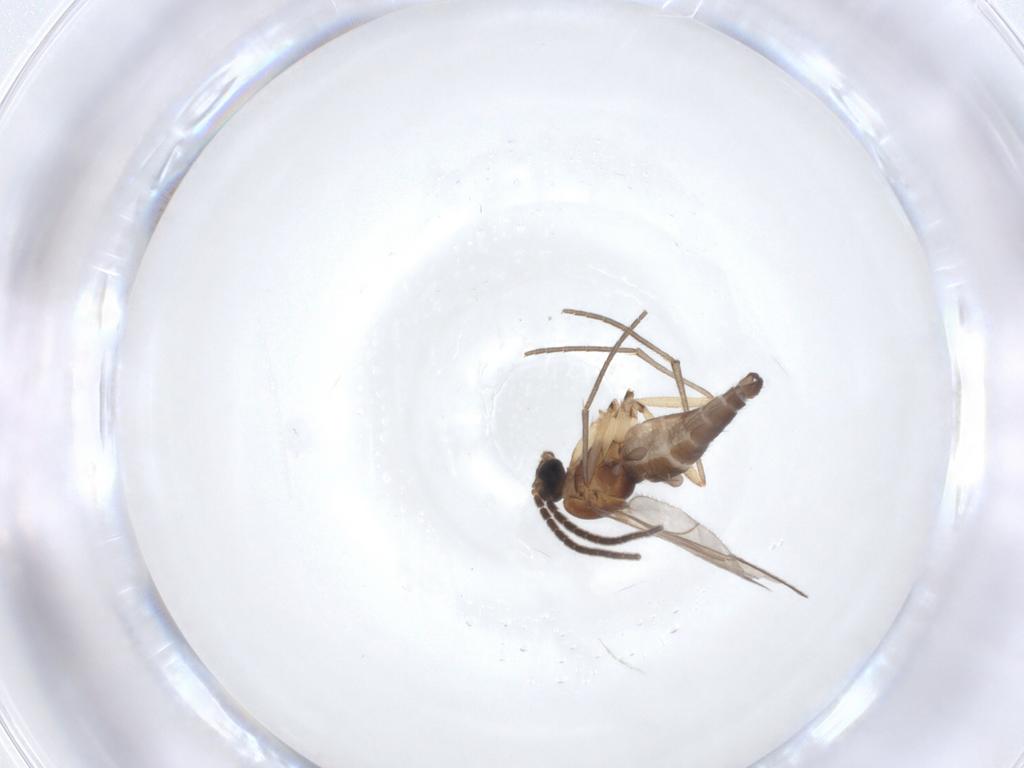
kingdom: Animalia
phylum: Arthropoda
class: Insecta
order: Diptera
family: Sciaridae
